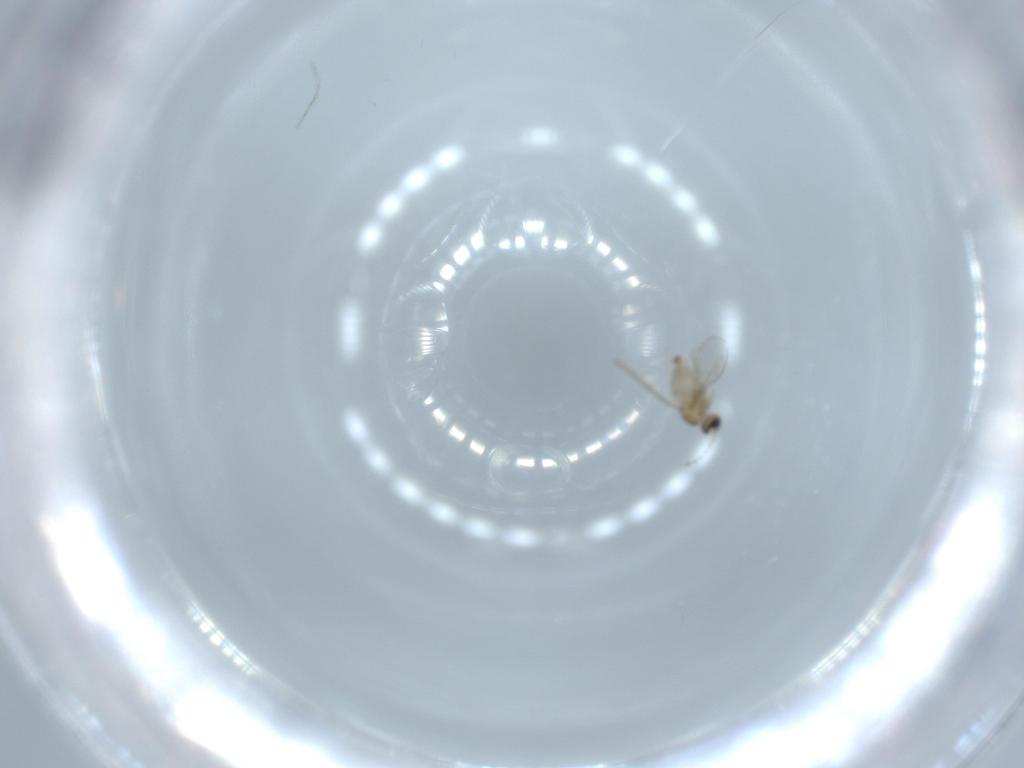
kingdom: Animalia
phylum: Arthropoda
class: Insecta
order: Diptera
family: Cecidomyiidae
